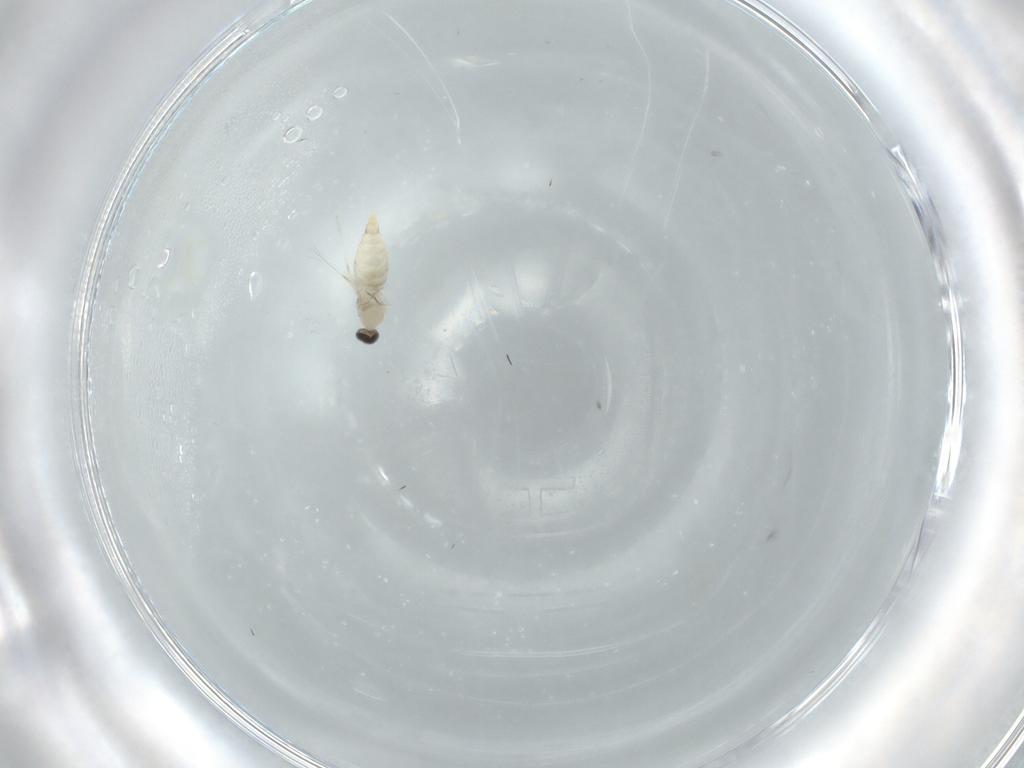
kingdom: Animalia
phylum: Arthropoda
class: Insecta
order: Diptera
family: Cecidomyiidae
